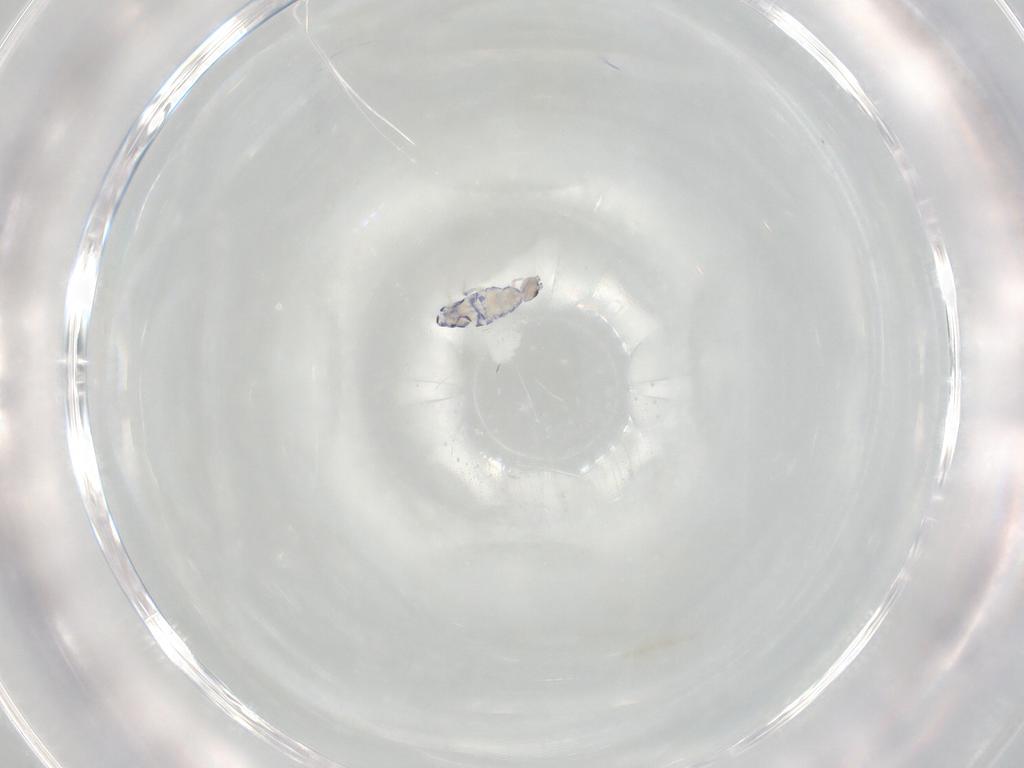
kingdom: Animalia
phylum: Arthropoda
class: Collembola
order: Entomobryomorpha
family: Entomobryidae
